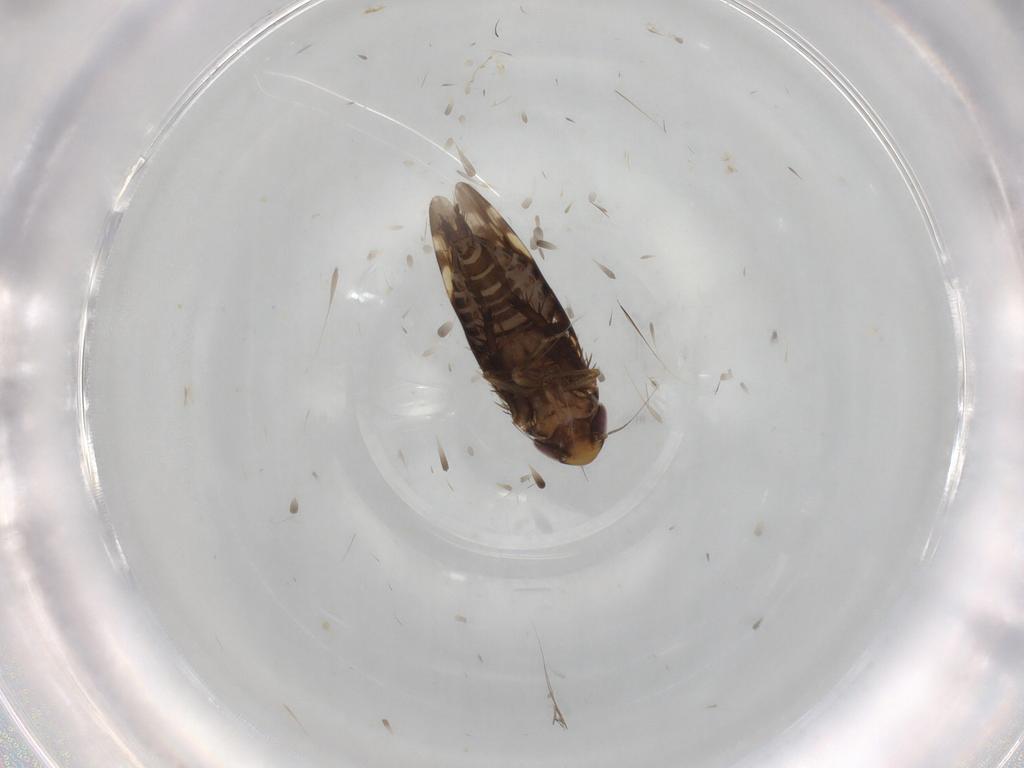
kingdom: Animalia
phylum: Arthropoda
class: Insecta
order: Hemiptera
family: Cicadellidae
